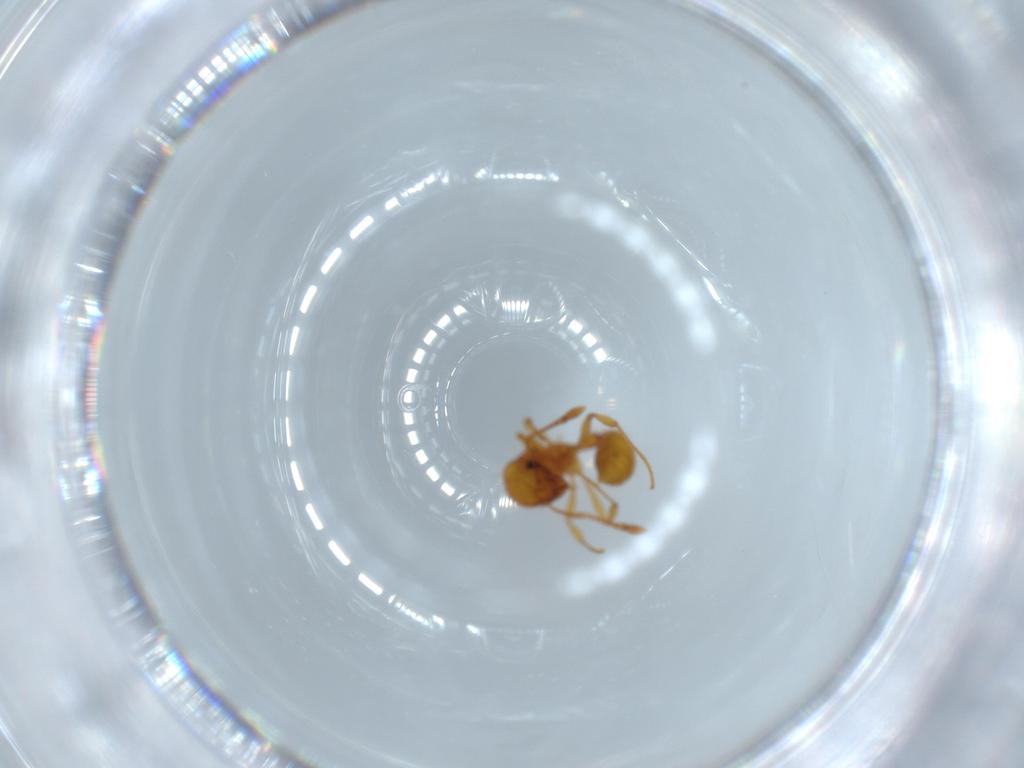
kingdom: Animalia
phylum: Arthropoda
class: Insecta
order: Hymenoptera
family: Formicidae
